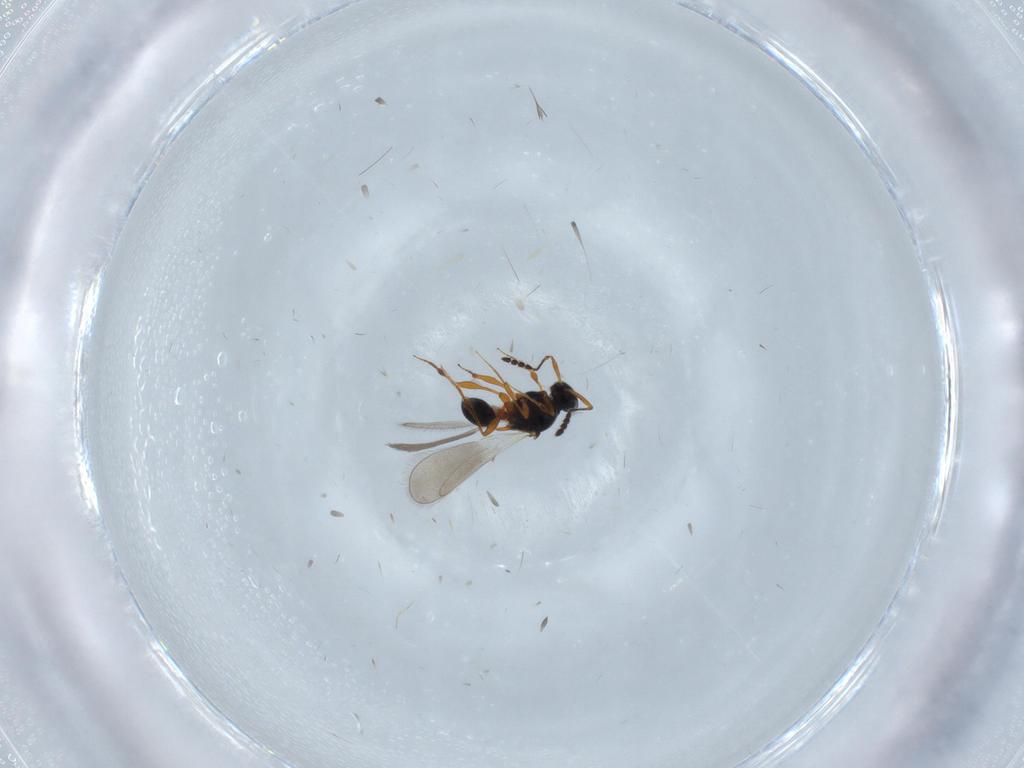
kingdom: Animalia
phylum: Arthropoda
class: Insecta
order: Hymenoptera
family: Platygastridae
